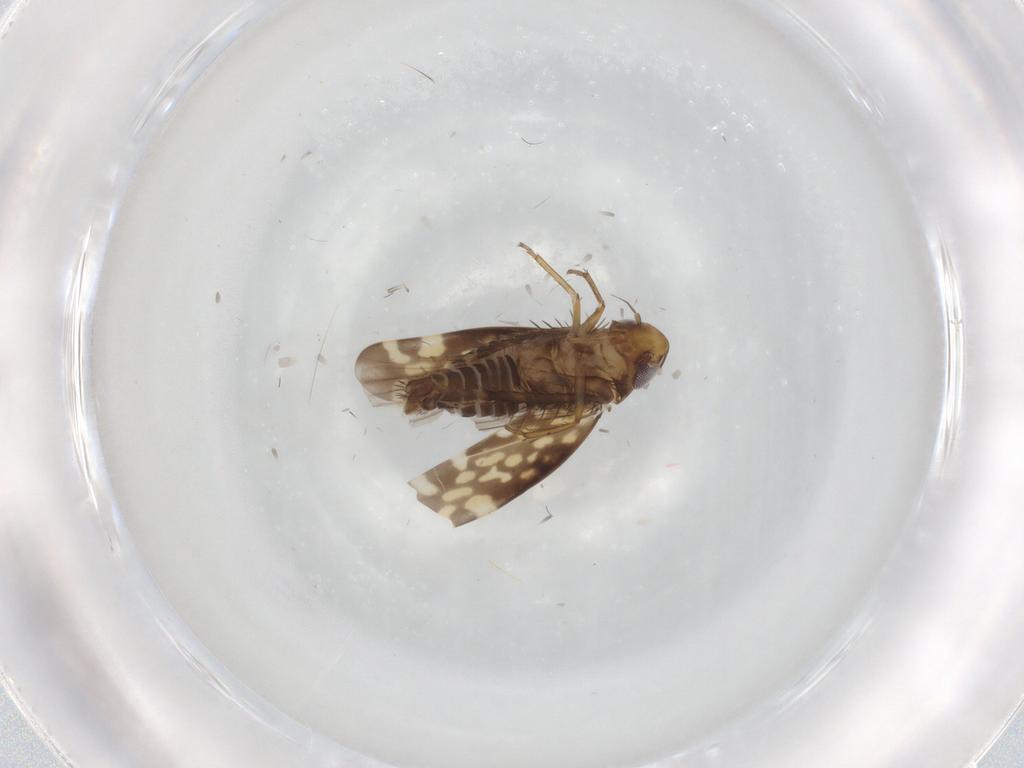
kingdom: Animalia
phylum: Arthropoda
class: Insecta
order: Hemiptera
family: Cicadellidae
